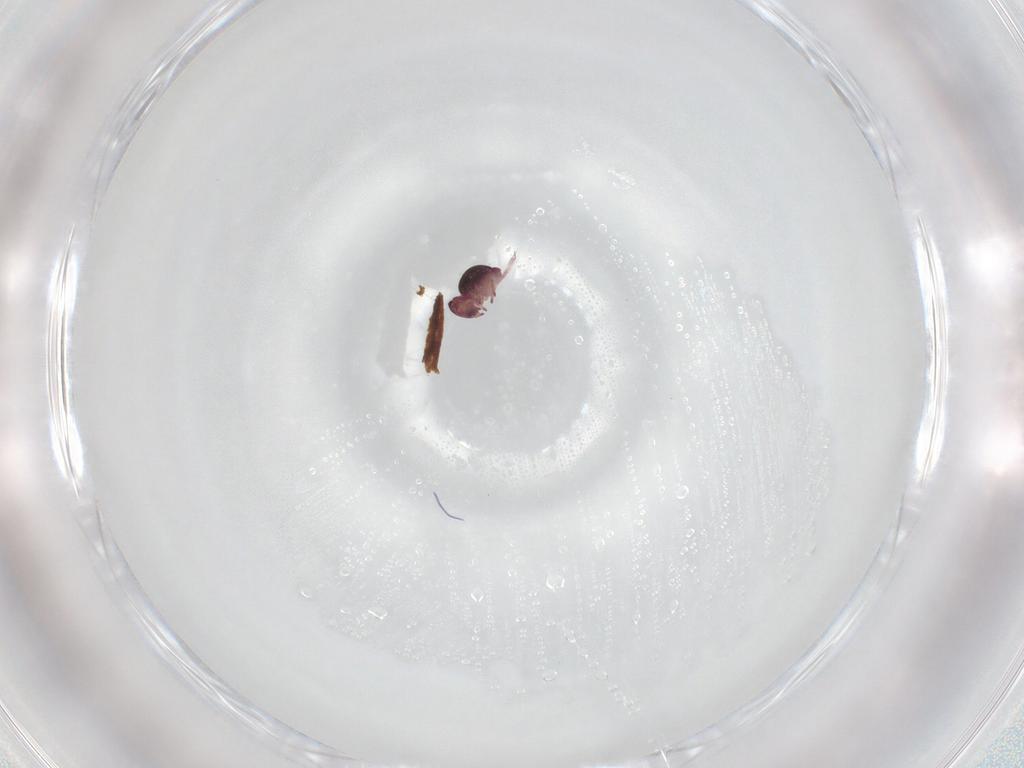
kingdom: Animalia
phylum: Arthropoda
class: Collembola
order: Symphypleona
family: Sminthurididae
